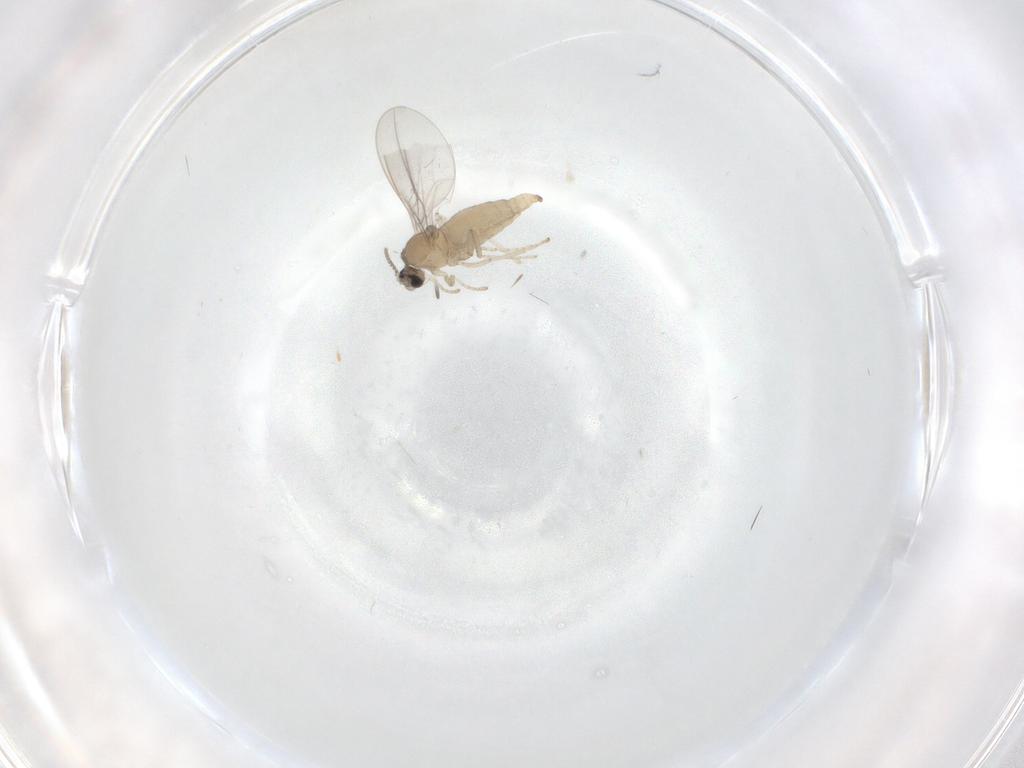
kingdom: Animalia
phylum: Arthropoda
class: Insecta
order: Diptera
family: Cecidomyiidae
